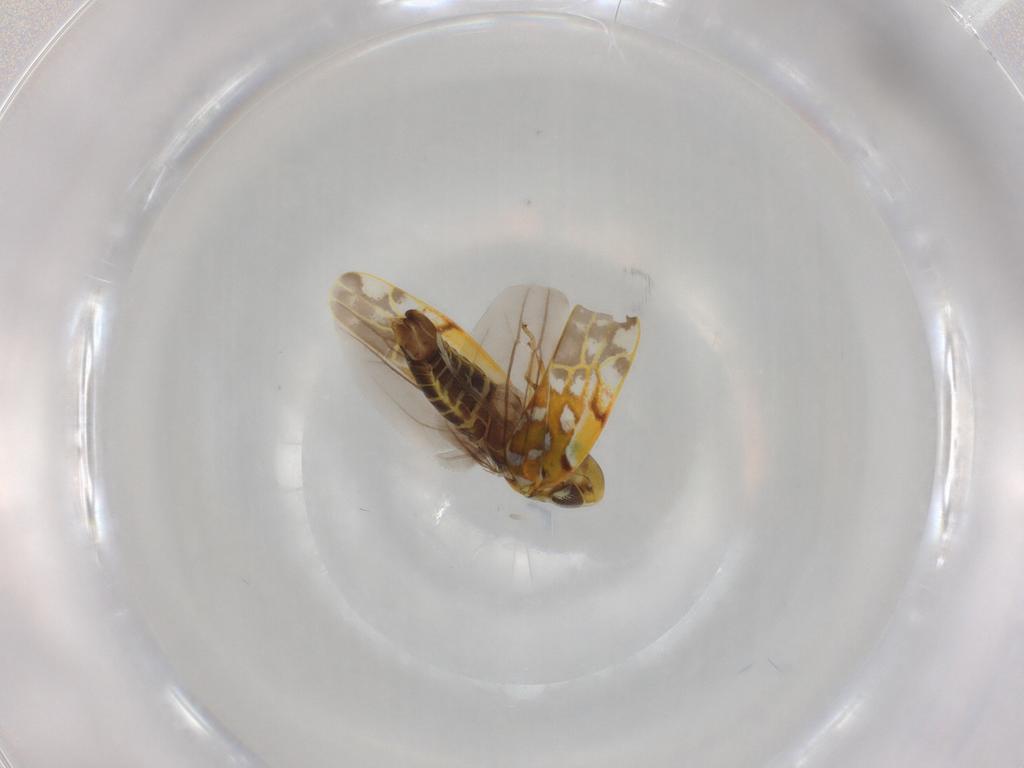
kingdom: Animalia
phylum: Arthropoda
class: Insecta
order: Hemiptera
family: Cicadellidae
